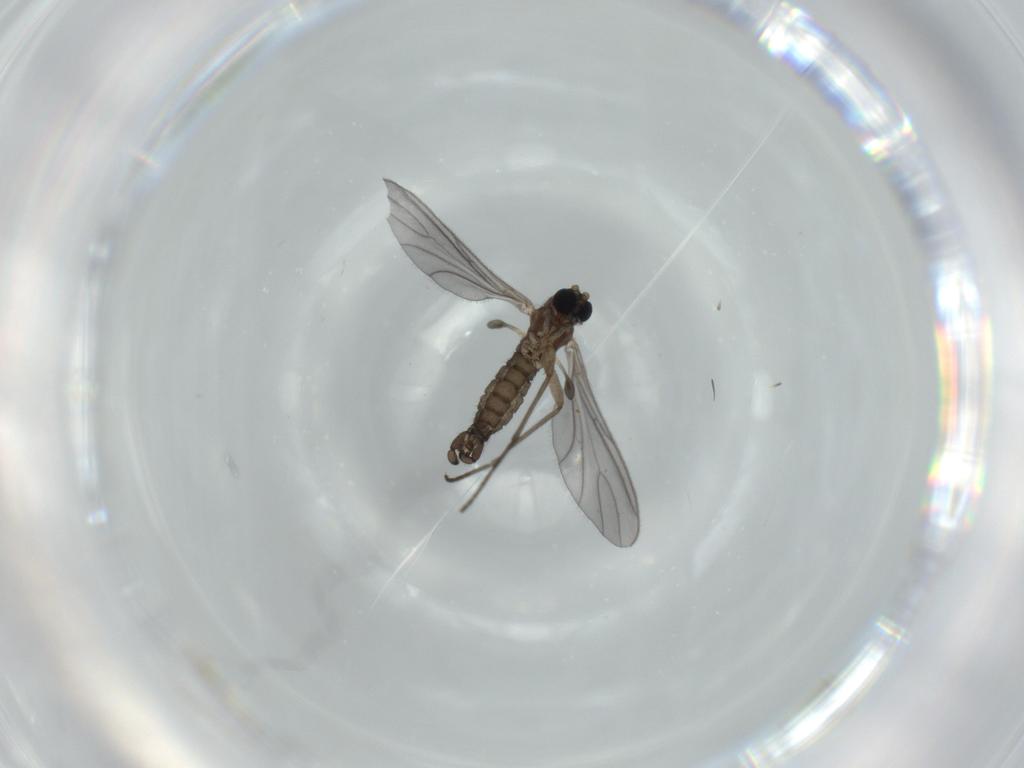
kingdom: Animalia
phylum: Arthropoda
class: Insecta
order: Diptera
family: Sciaridae
